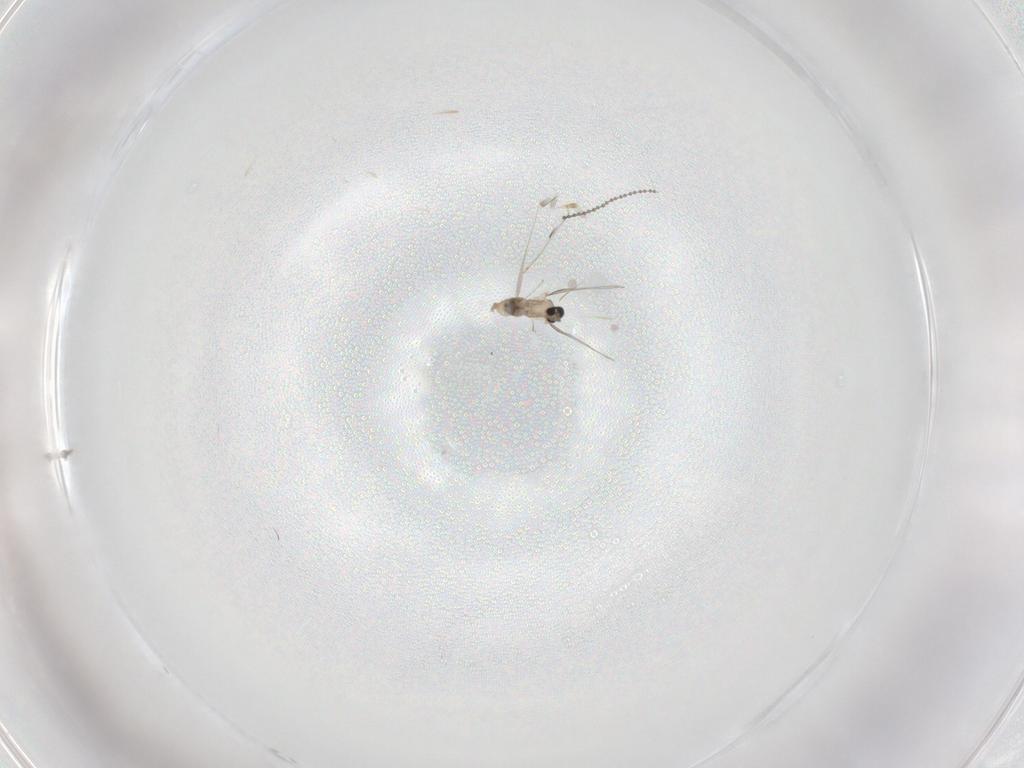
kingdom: Animalia
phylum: Arthropoda
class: Insecta
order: Diptera
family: Cecidomyiidae
